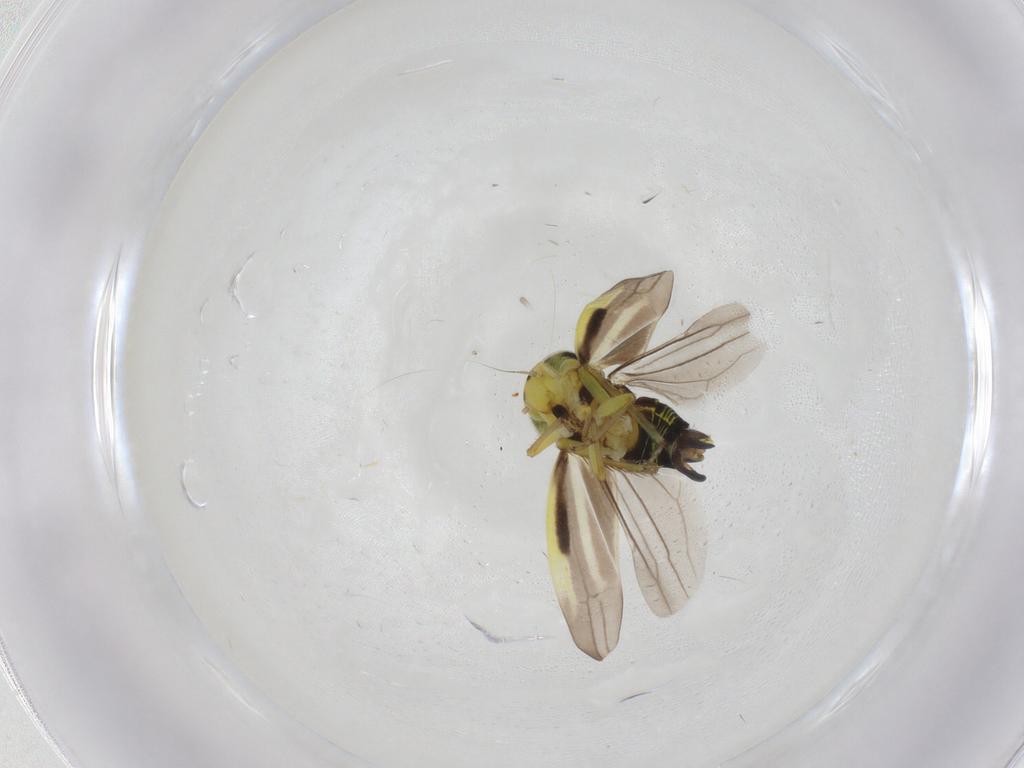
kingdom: Animalia
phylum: Arthropoda
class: Insecta
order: Hemiptera
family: Cicadellidae
